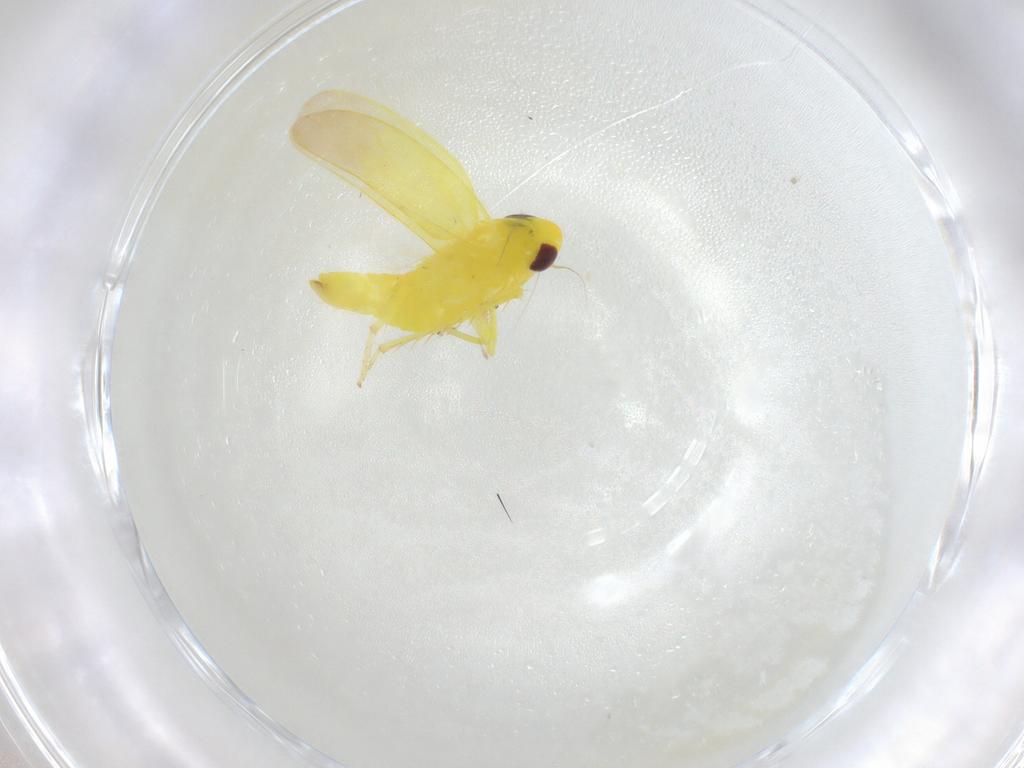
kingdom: Animalia
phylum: Arthropoda
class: Insecta
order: Hemiptera
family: Cicadellidae
